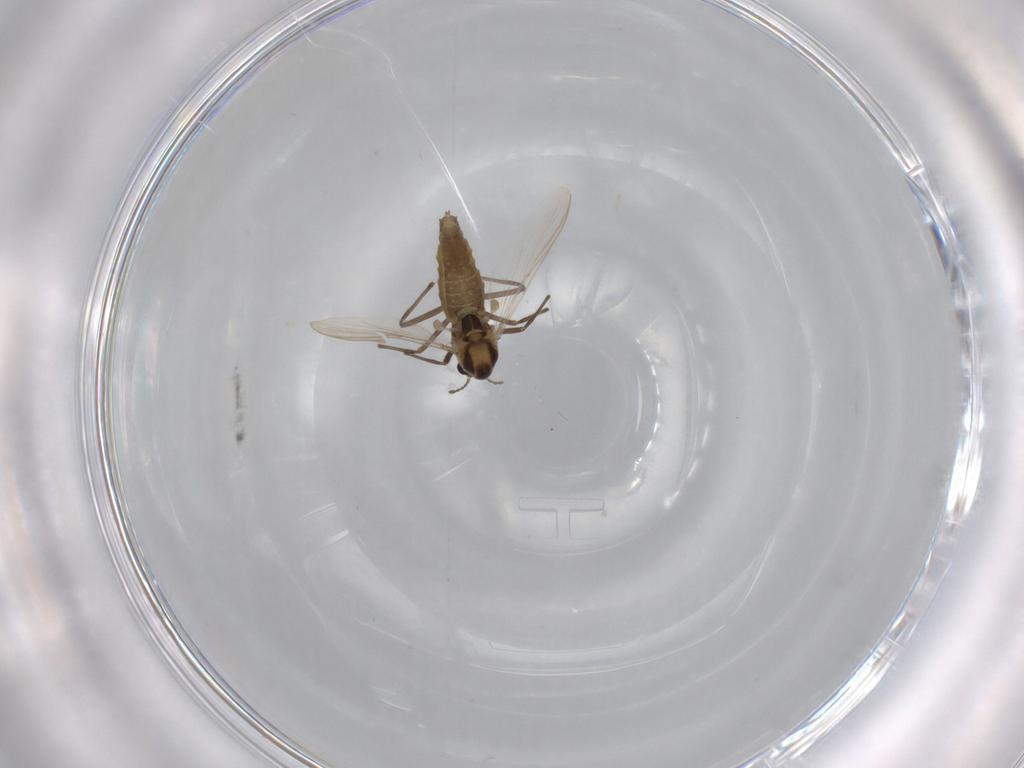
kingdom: Animalia
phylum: Arthropoda
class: Insecta
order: Diptera
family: Chironomidae
